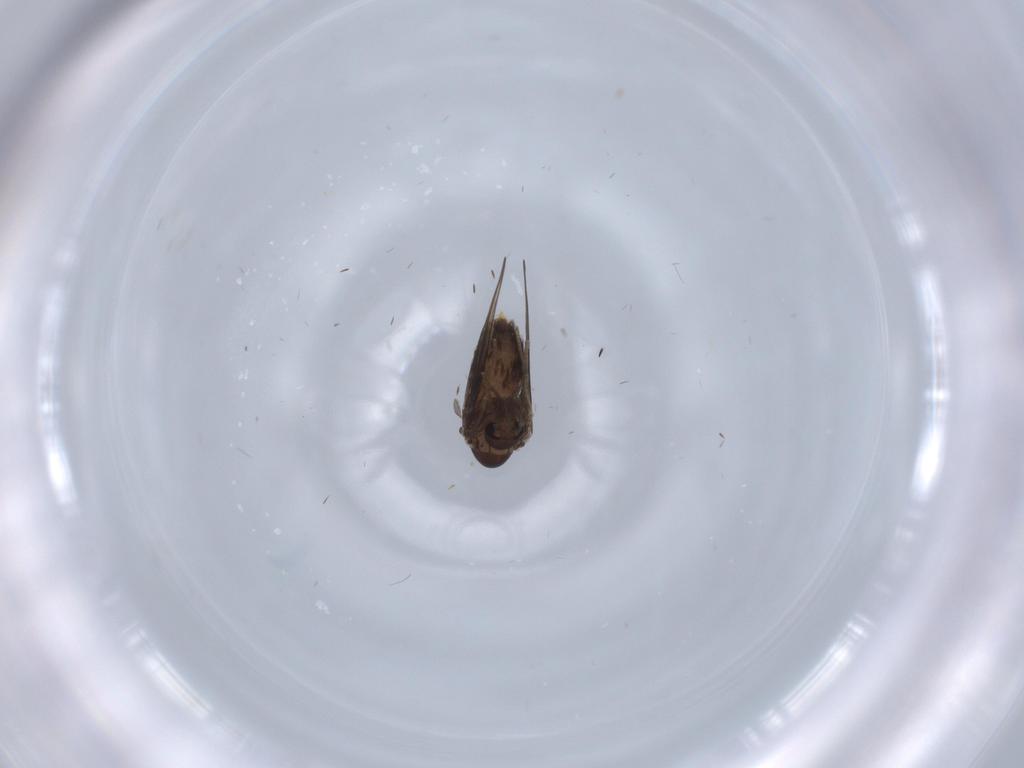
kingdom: Animalia
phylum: Arthropoda
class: Insecta
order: Diptera
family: Psychodidae
